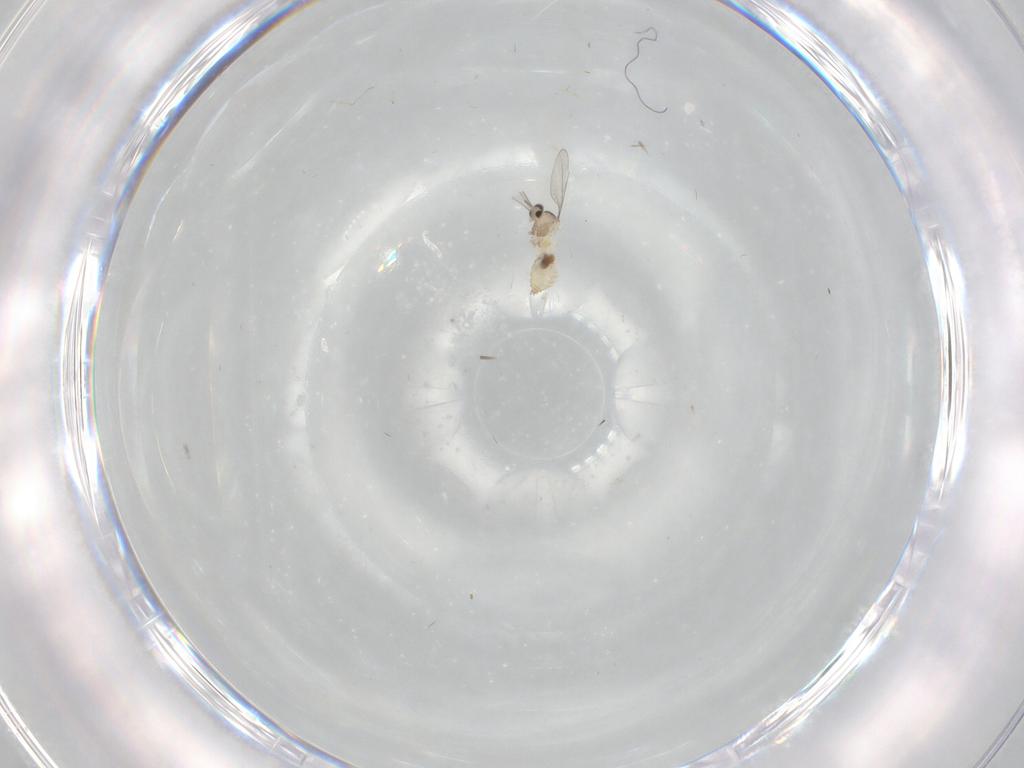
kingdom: Animalia
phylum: Arthropoda
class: Insecta
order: Diptera
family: Cecidomyiidae
